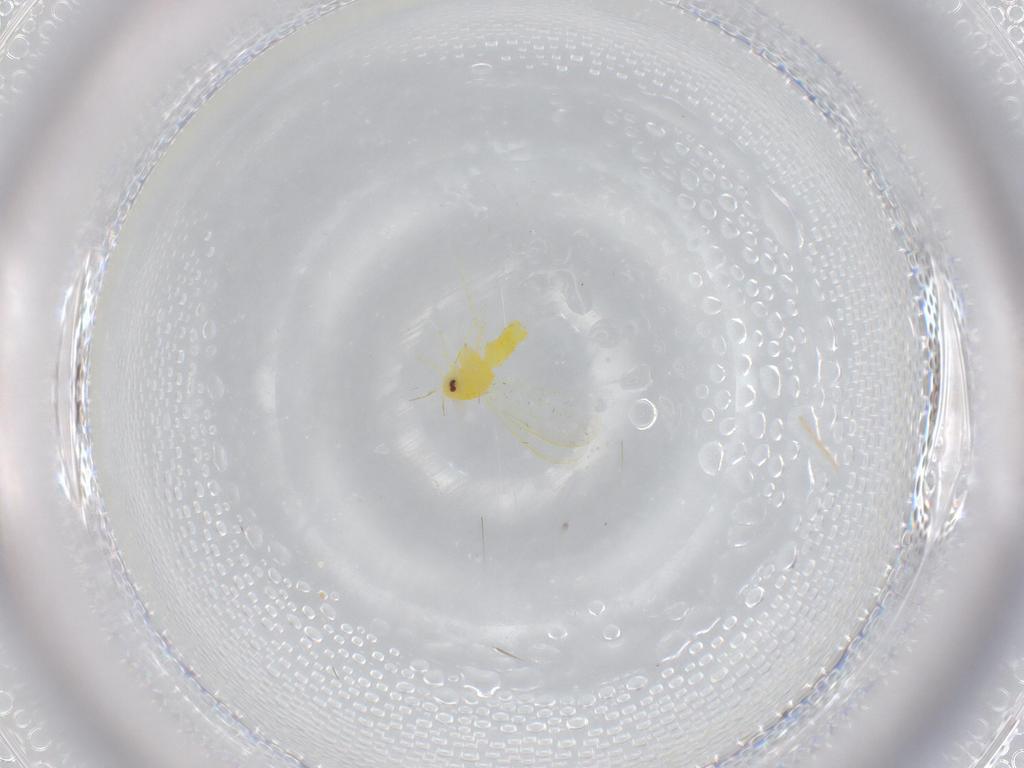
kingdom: Animalia
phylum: Arthropoda
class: Insecta
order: Hemiptera
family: Aleyrodidae
